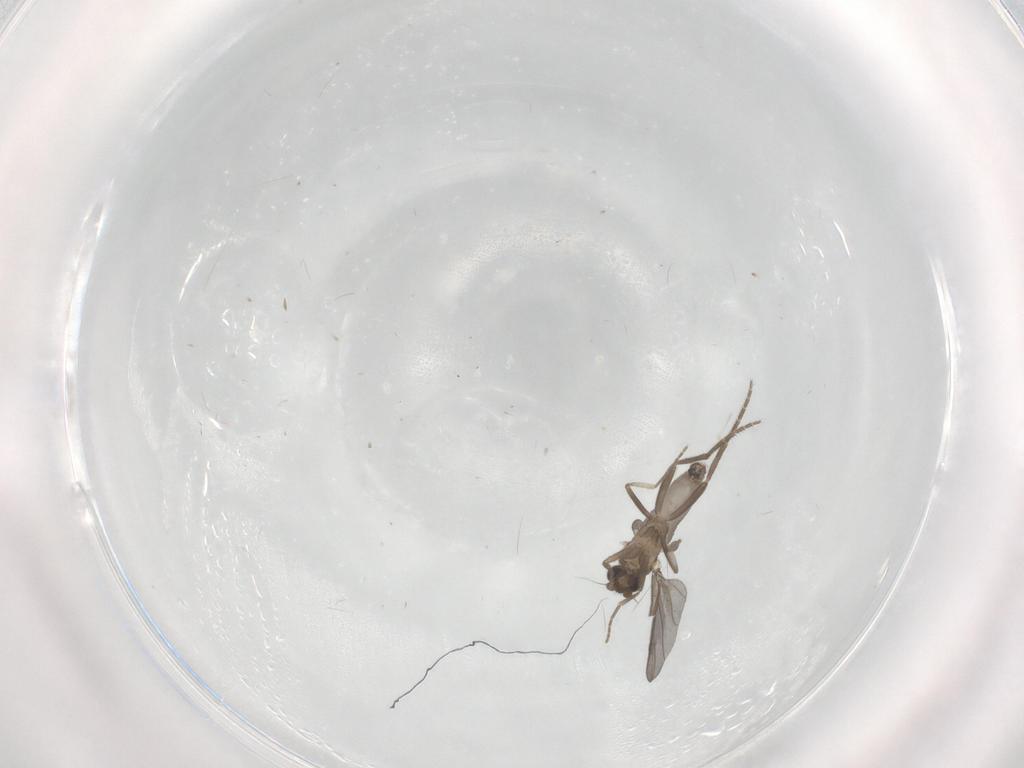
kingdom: Animalia
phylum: Arthropoda
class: Insecta
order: Diptera
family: Phoridae
